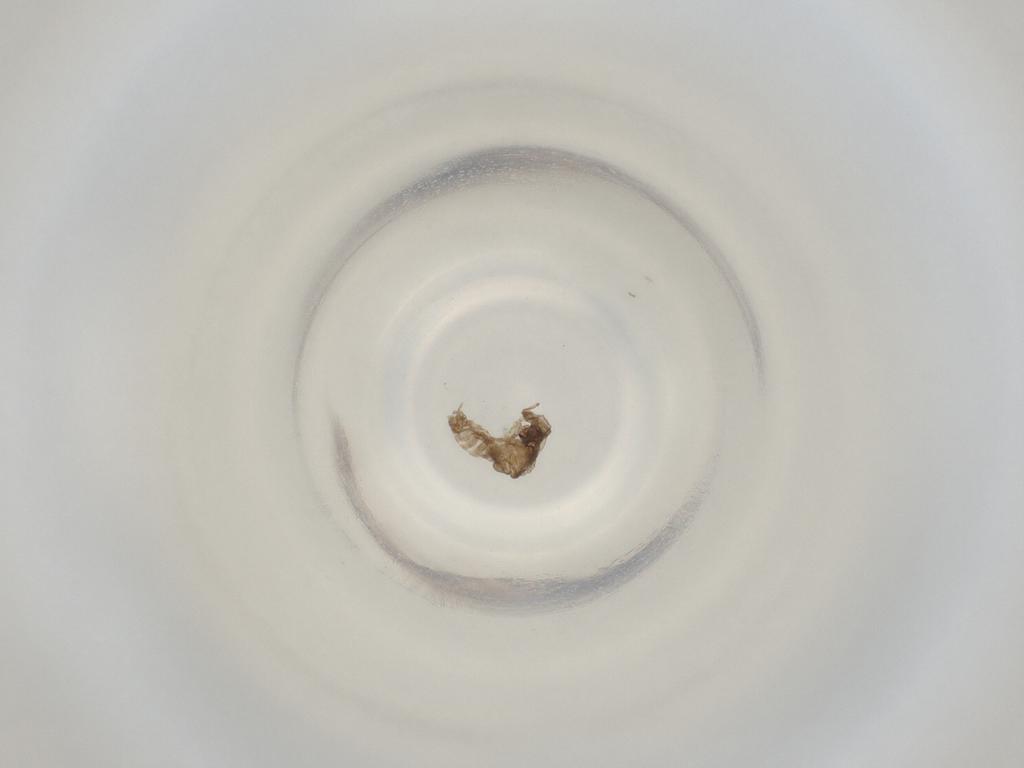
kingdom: Animalia
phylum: Arthropoda
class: Insecta
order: Diptera
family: Cecidomyiidae
